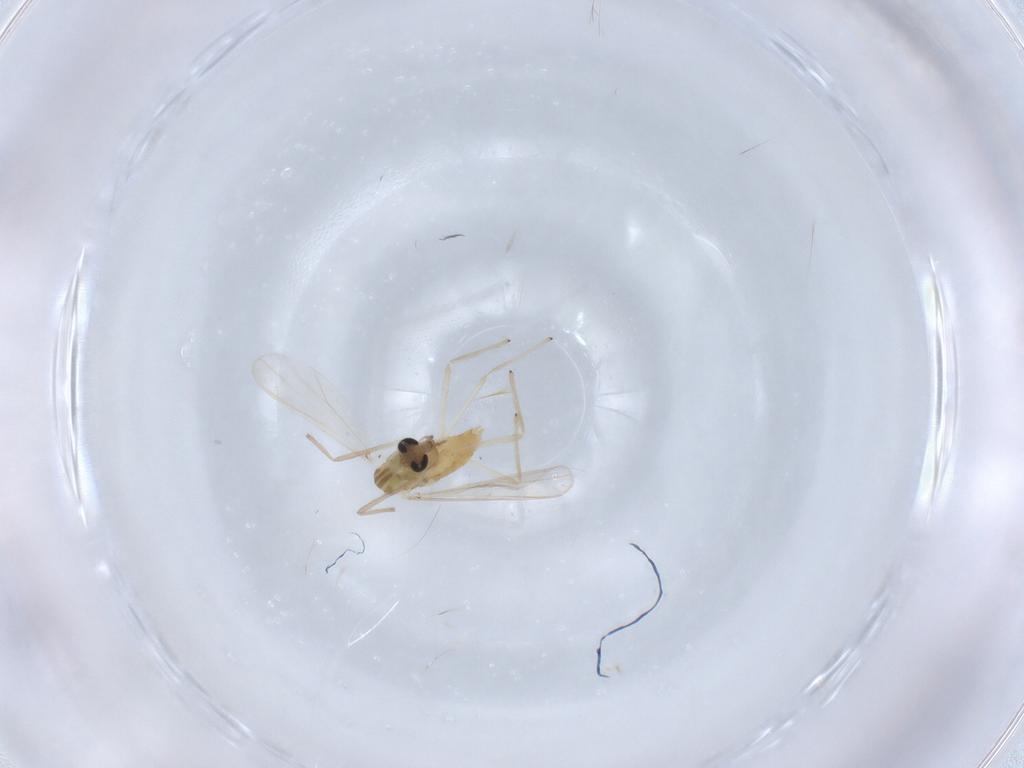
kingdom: Animalia
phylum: Arthropoda
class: Insecta
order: Diptera
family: Chironomidae
